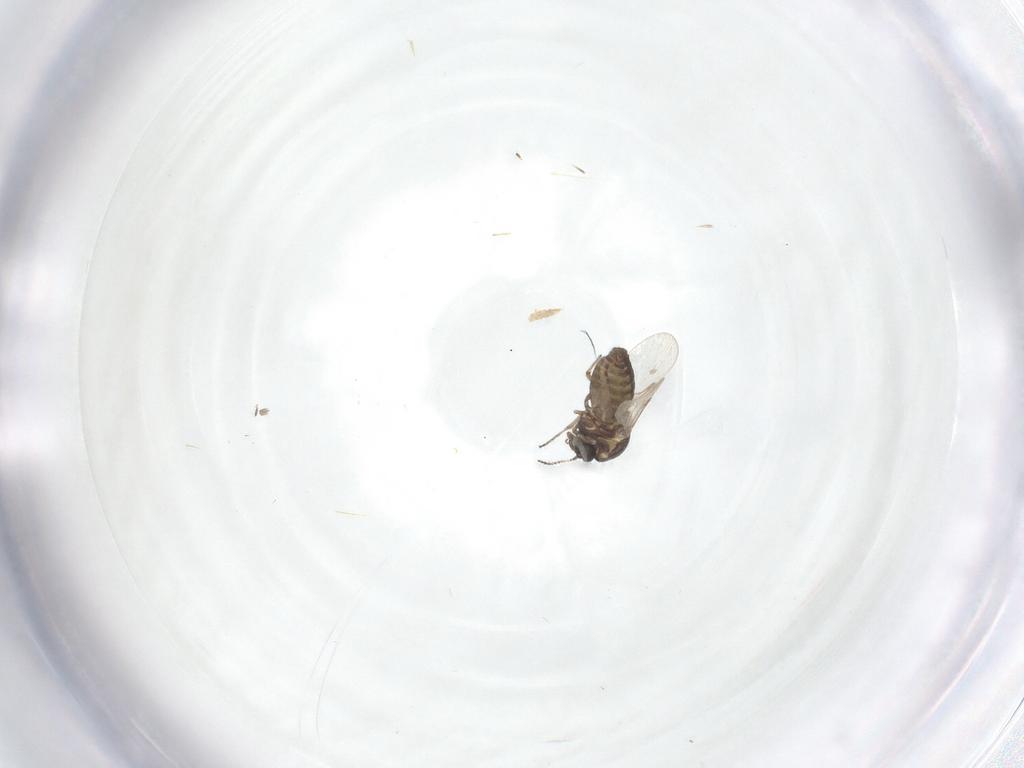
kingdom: Animalia
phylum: Arthropoda
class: Insecta
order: Diptera
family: Ceratopogonidae
